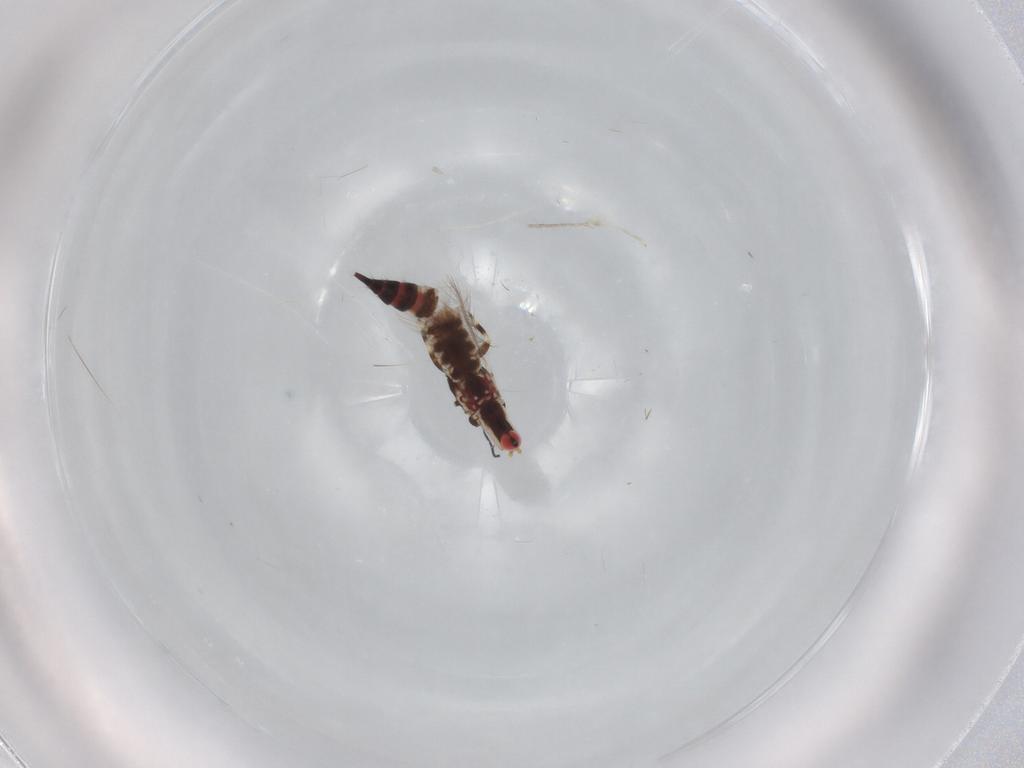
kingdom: Animalia
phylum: Arthropoda
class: Insecta
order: Thysanoptera
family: Phlaeothripidae
